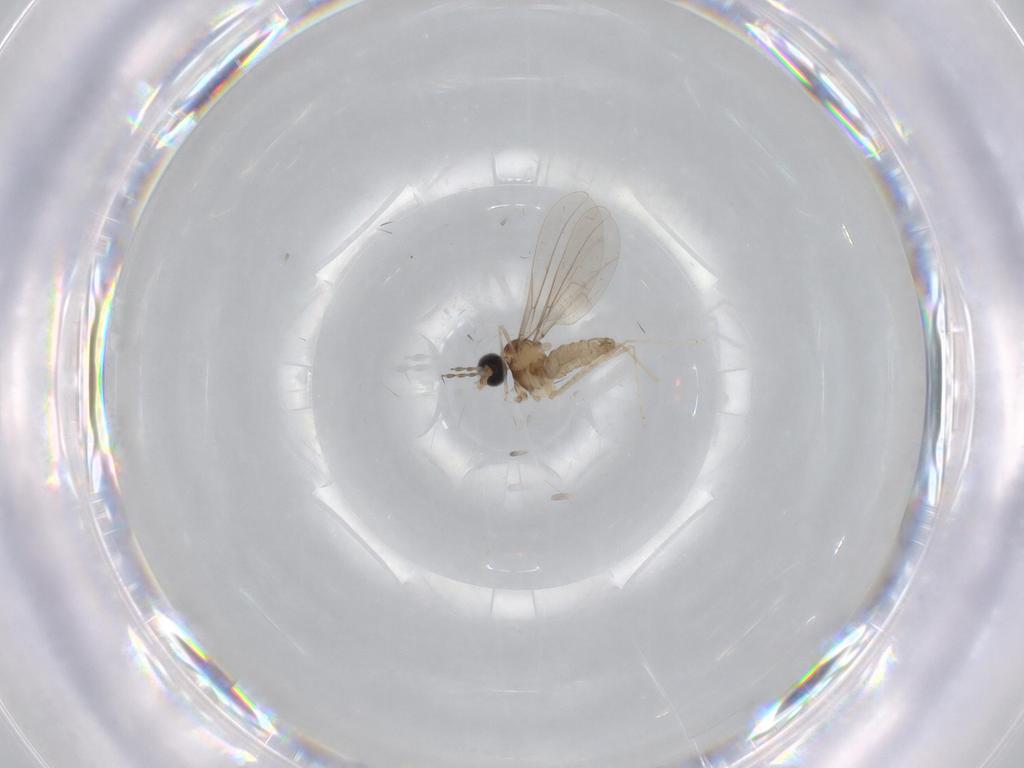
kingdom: Animalia
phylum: Arthropoda
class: Insecta
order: Diptera
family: Cecidomyiidae
